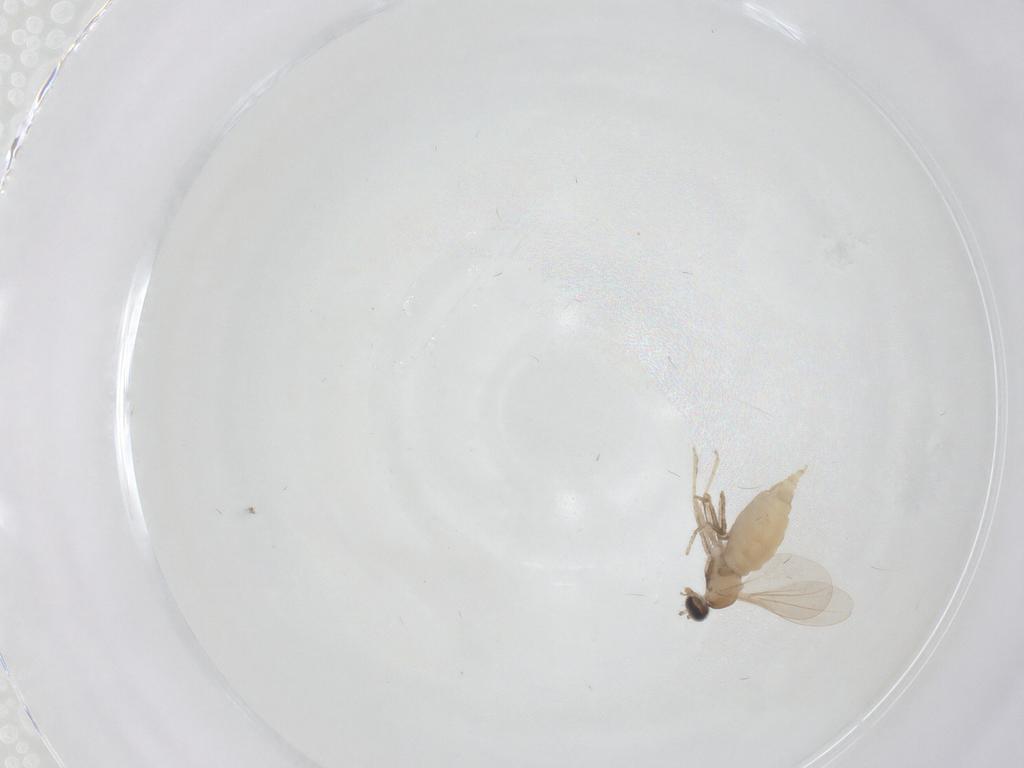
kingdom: Animalia
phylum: Arthropoda
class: Insecta
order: Diptera
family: Cecidomyiidae
